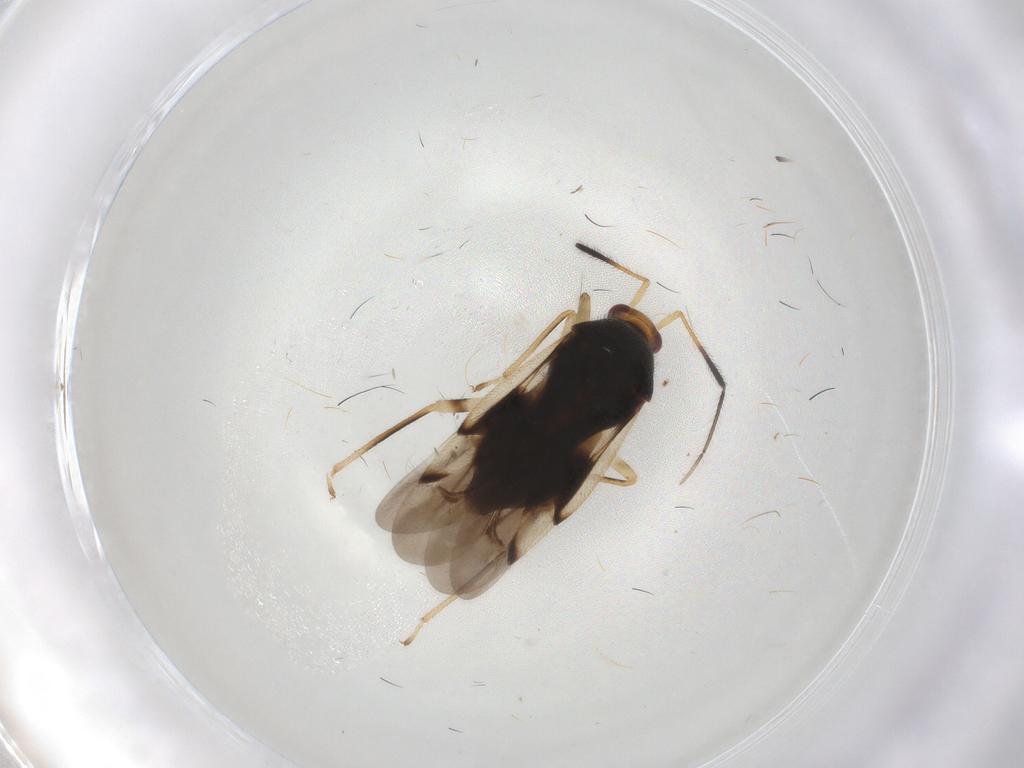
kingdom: Animalia
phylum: Arthropoda
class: Insecta
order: Hemiptera
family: Miridae
